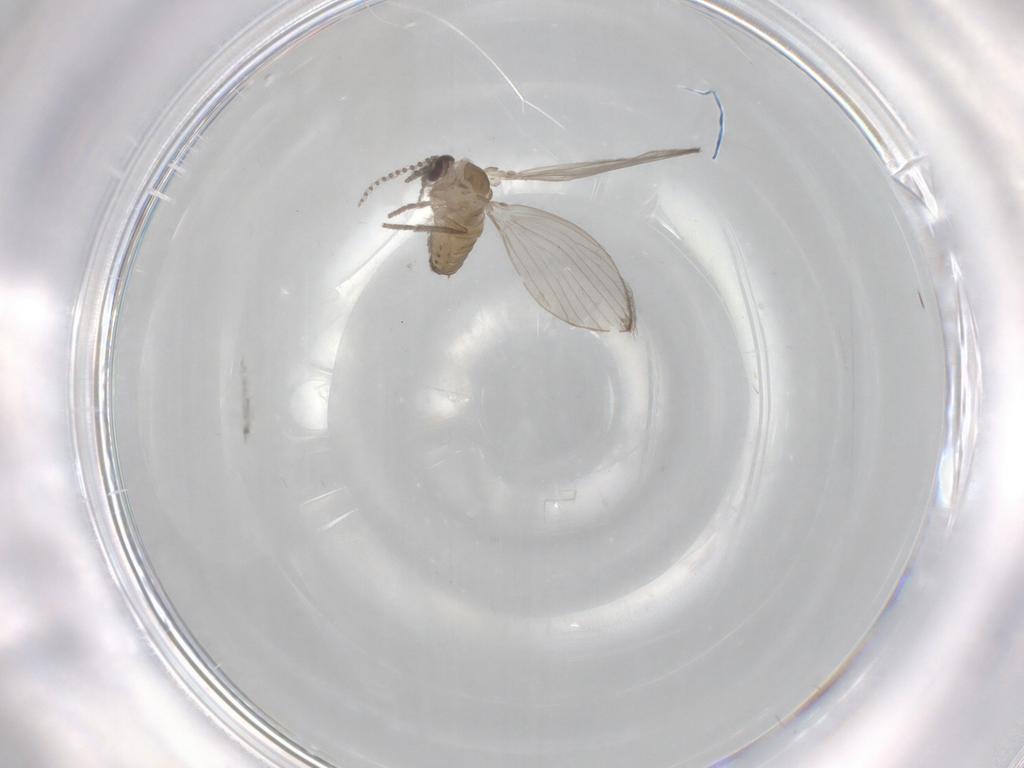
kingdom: Animalia
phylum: Arthropoda
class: Insecta
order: Diptera
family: Psychodidae
